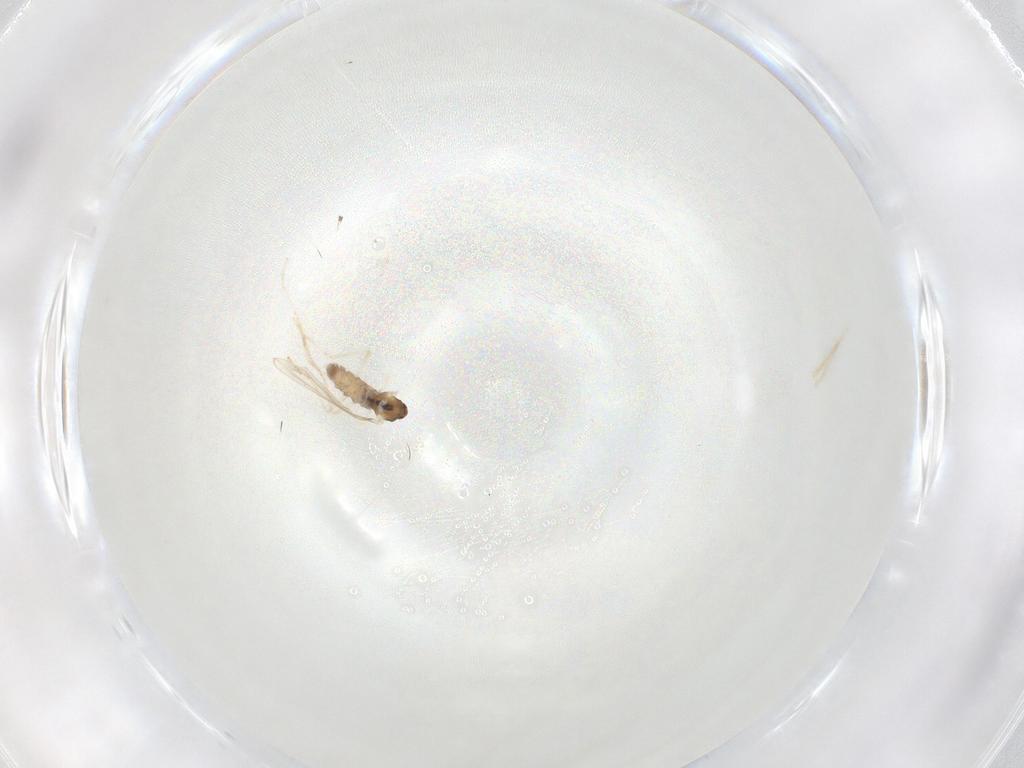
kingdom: Animalia
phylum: Arthropoda
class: Insecta
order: Diptera
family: Cecidomyiidae
